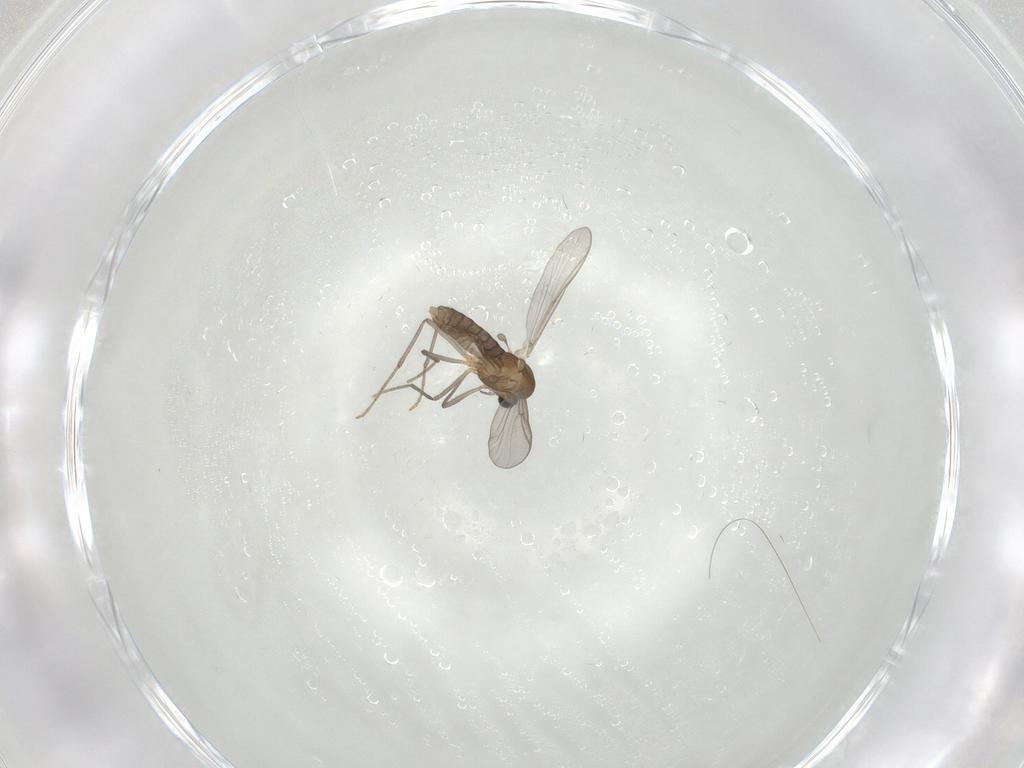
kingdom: Animalia
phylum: Arthropoda
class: Insecta
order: Diptera
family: Chironomidae
